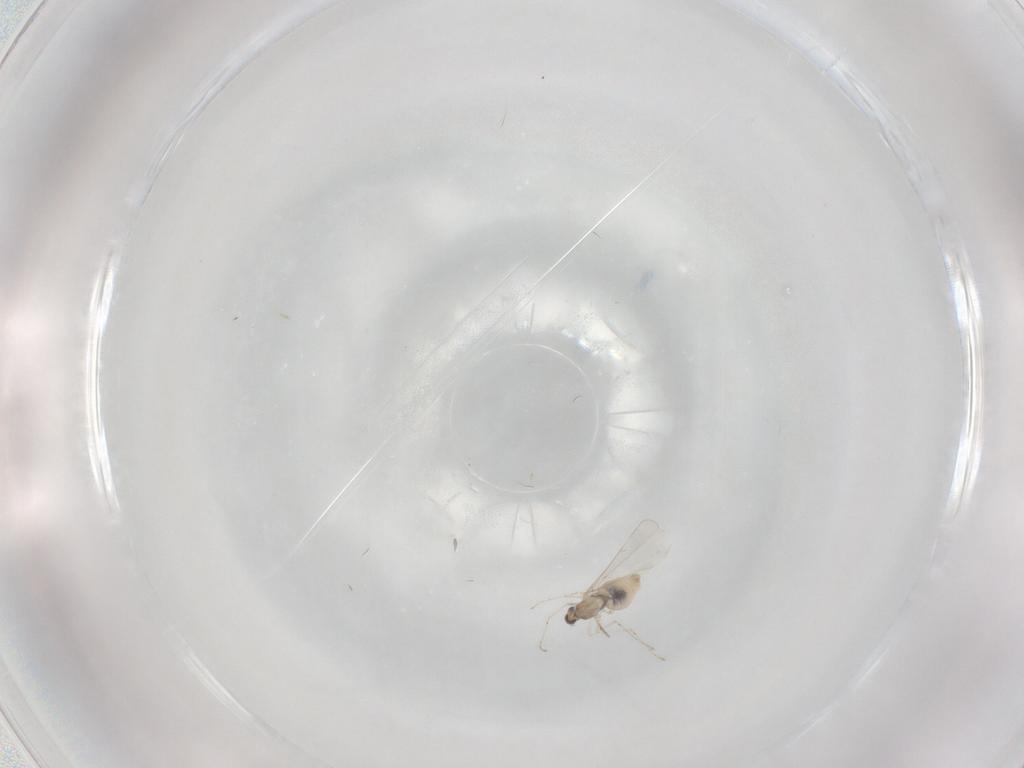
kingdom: Animalia
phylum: Arthropoda
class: Insecta
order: Diptera
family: Cecidomyiidae
